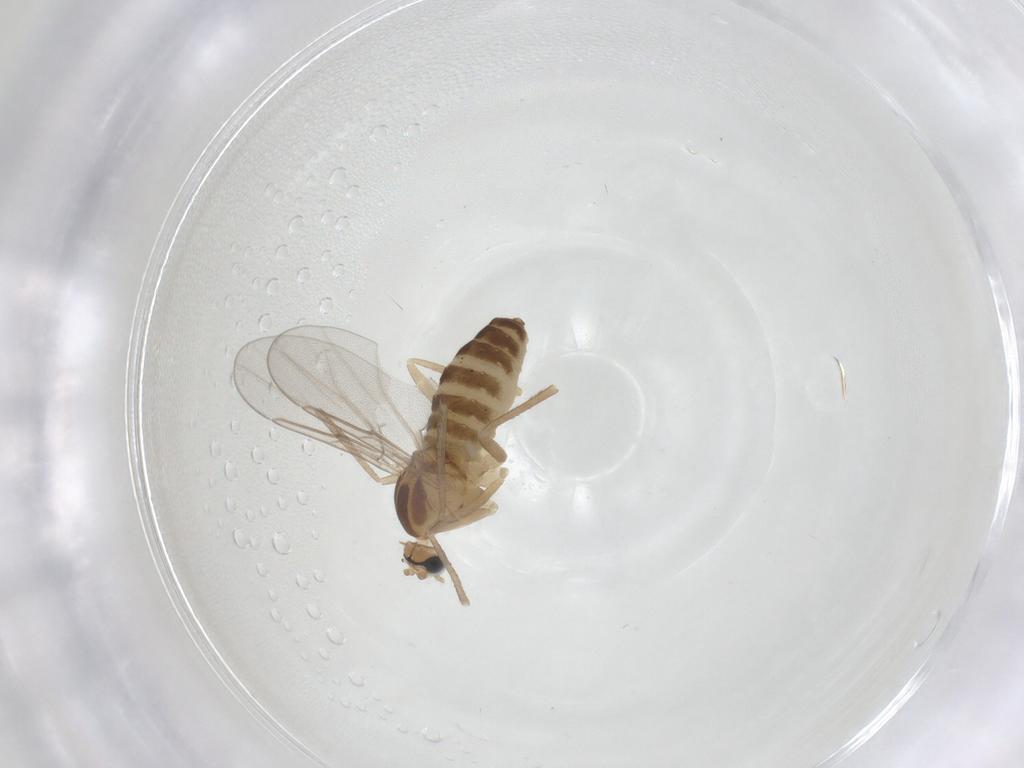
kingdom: Animalia
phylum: Arthropoda
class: Insecta
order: Diptera
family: Cecidomyiidae
